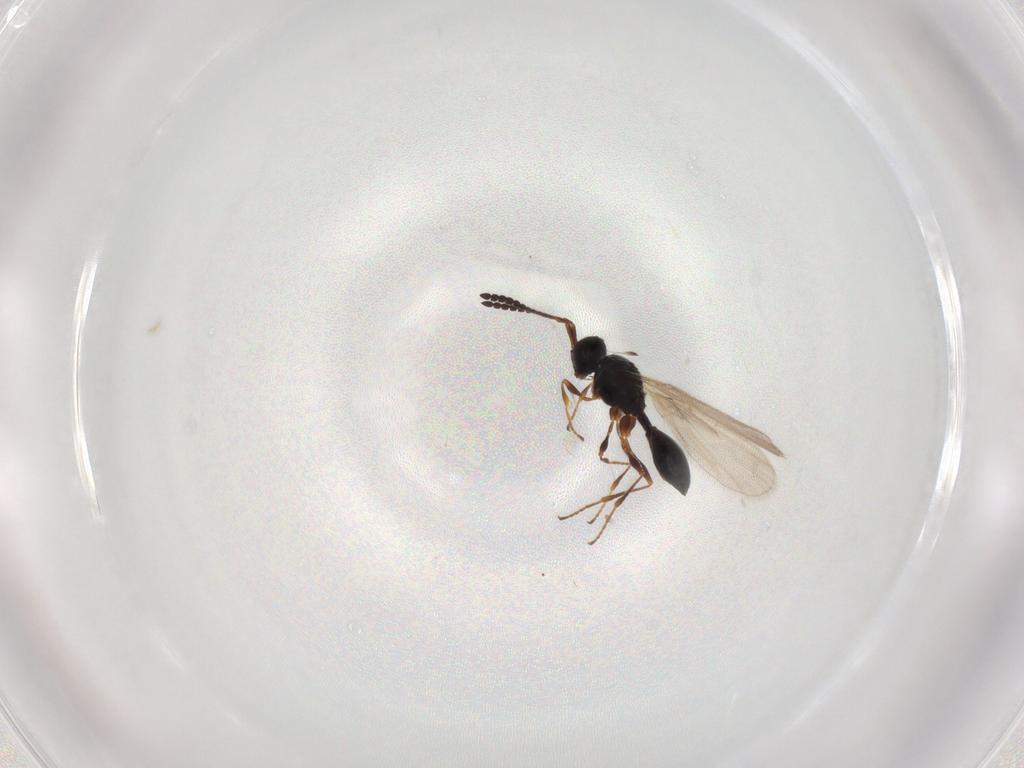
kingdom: Animalia
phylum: Arthropoda
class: Insecta
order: Hymenoptera
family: Diapriidae
